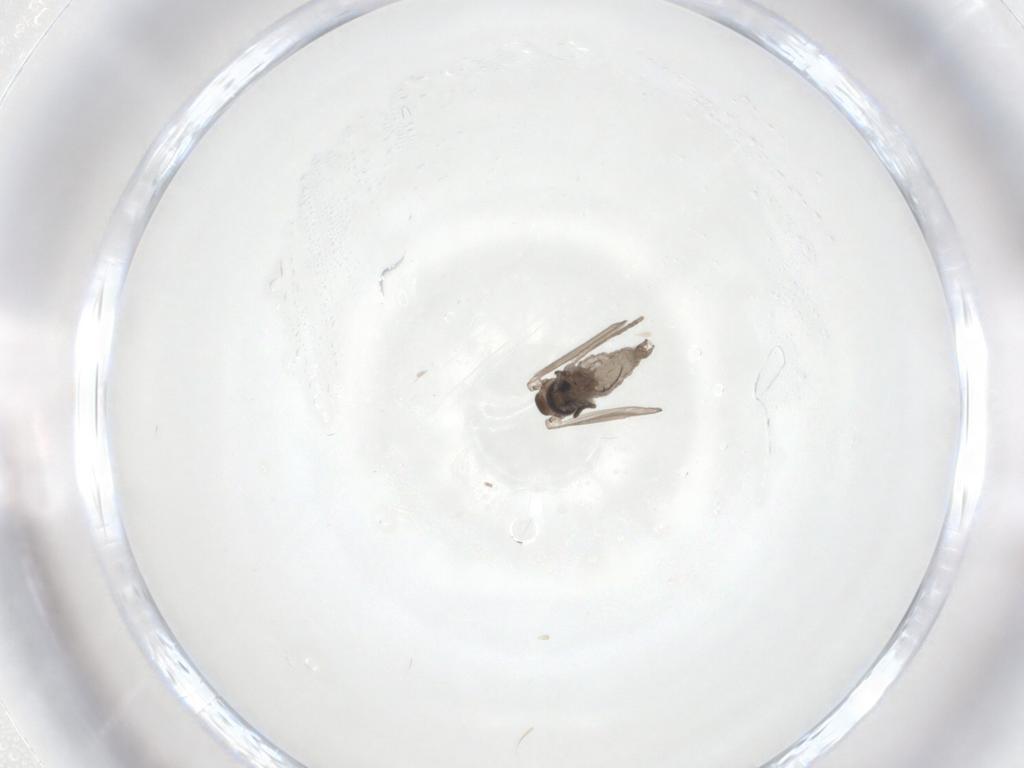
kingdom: Animalia
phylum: Arthropoda
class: Insecta
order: Diptera
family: Psychodidae
